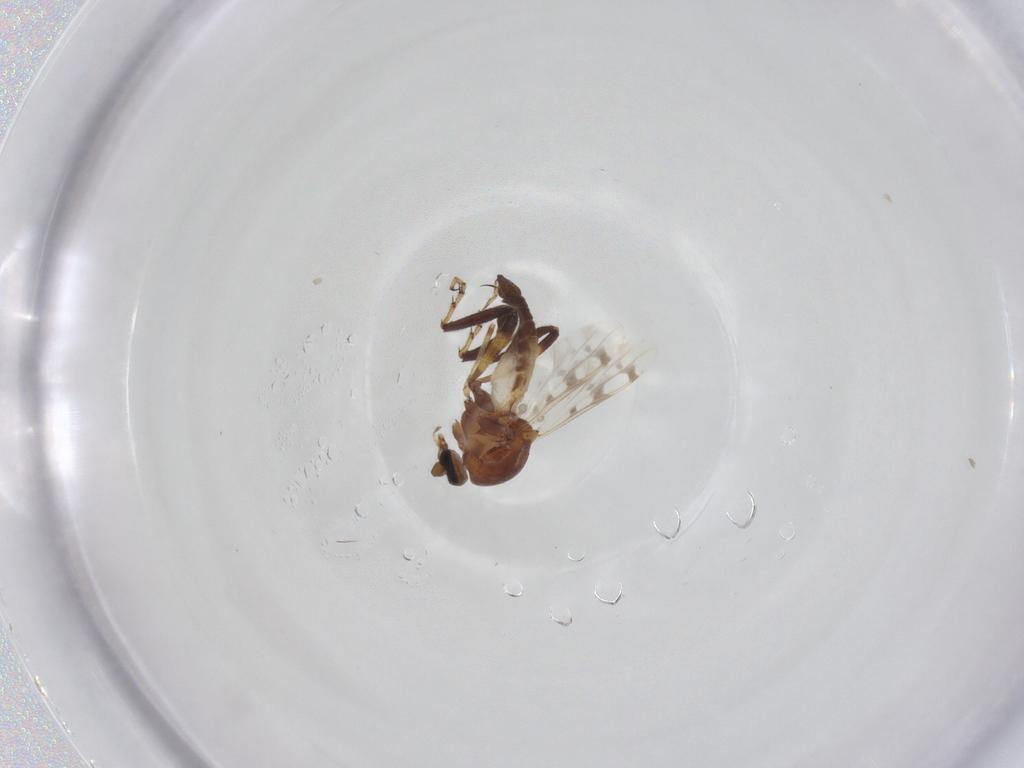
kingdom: Animalia
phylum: Arthropoda
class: Insecta
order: Diptera
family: Ceratopogonidae
